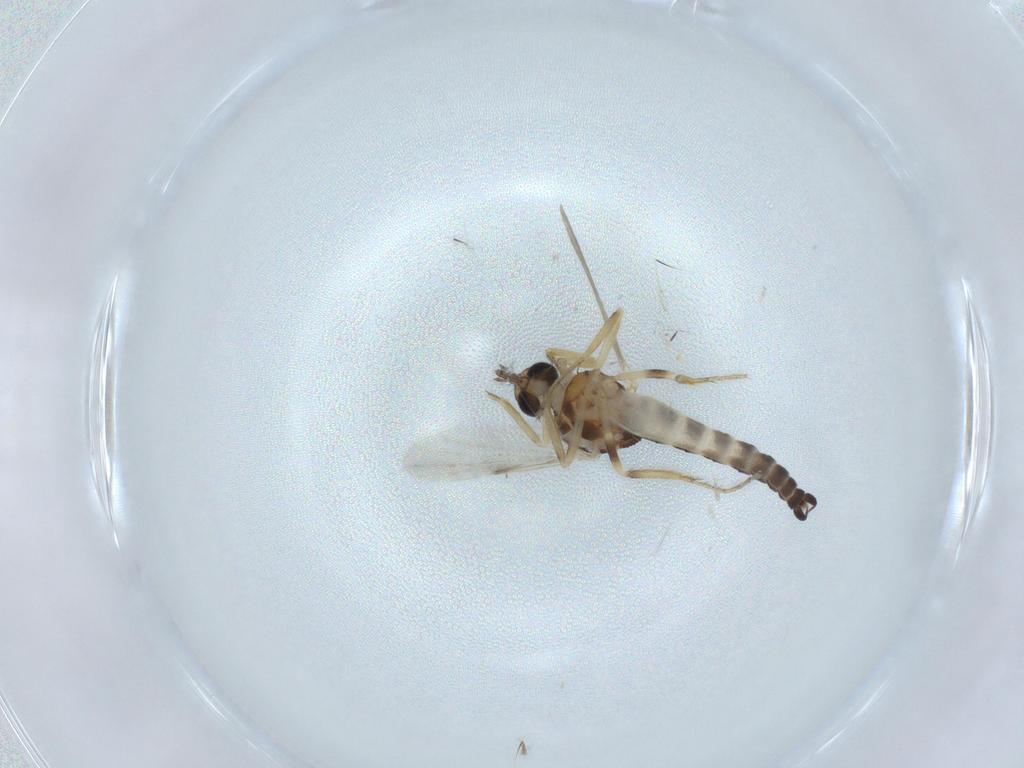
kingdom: Animalia
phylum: Arthropoda
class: Insecta
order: Diptera
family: Ceratopogonidae
